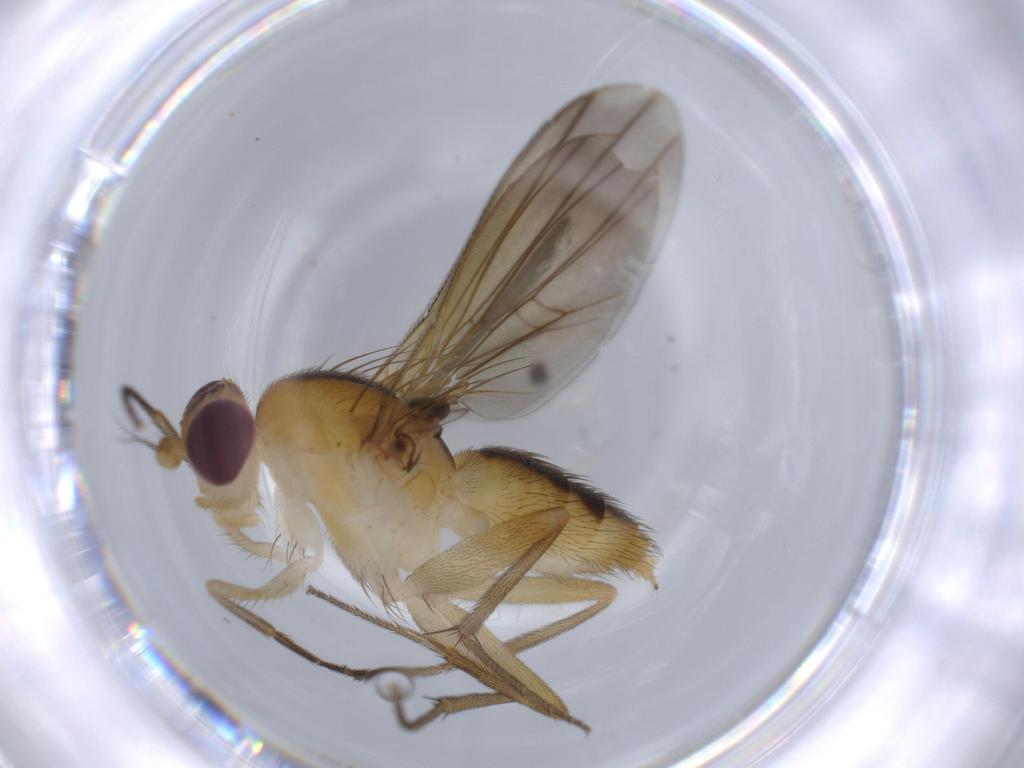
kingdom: Animalia
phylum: Arthropoda
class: Insecta
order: Diptera
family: Clusiidae
